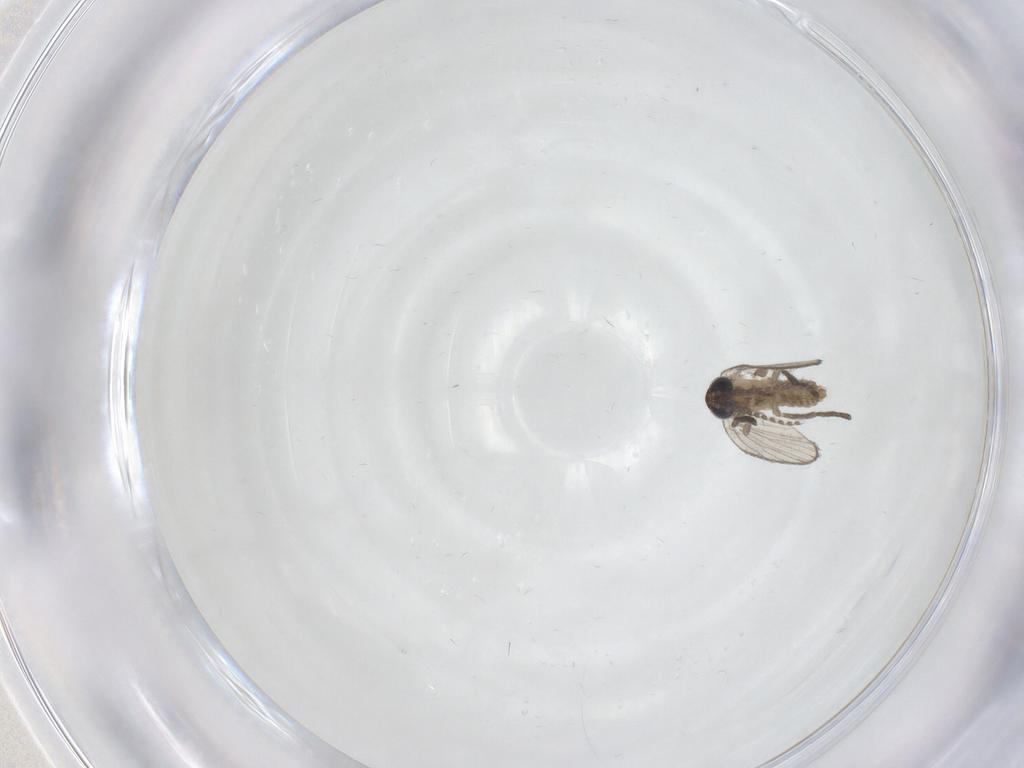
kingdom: Animalia
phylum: Arthropoda
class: Insecta
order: Diptera
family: Psychodidae
